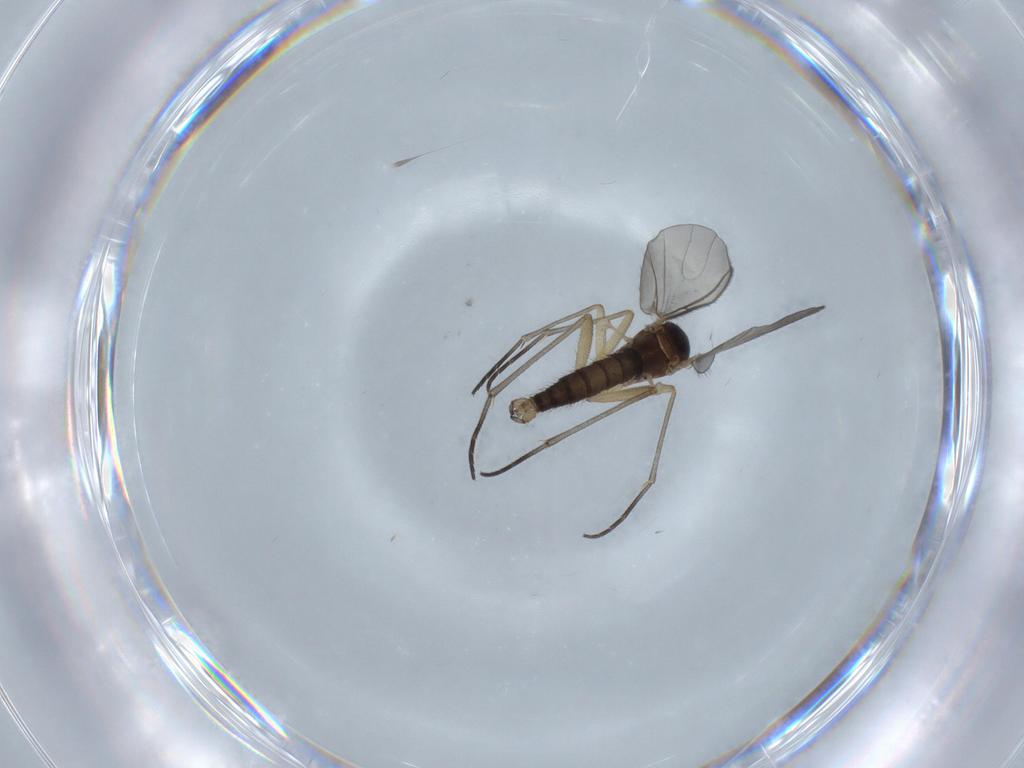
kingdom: Animalia
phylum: Arthropoda
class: Insecta
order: Diptera
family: Sciaridae
